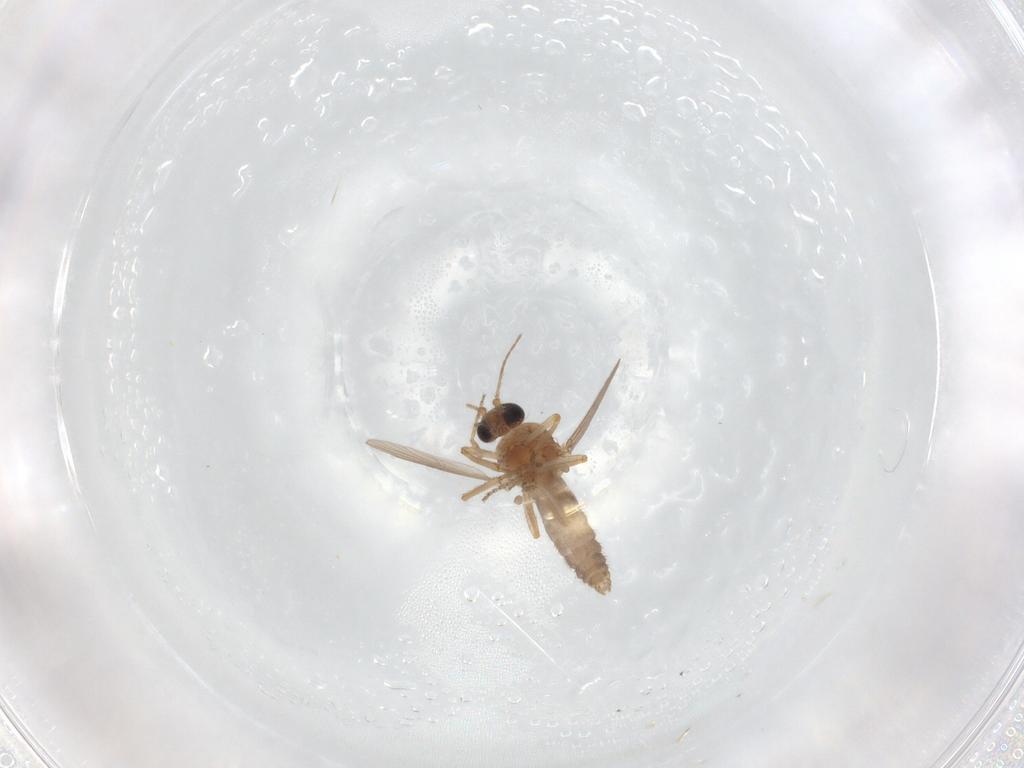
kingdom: Animalia
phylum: Arthropoda
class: Insecta
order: Diptera
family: Ceratopogonidae
